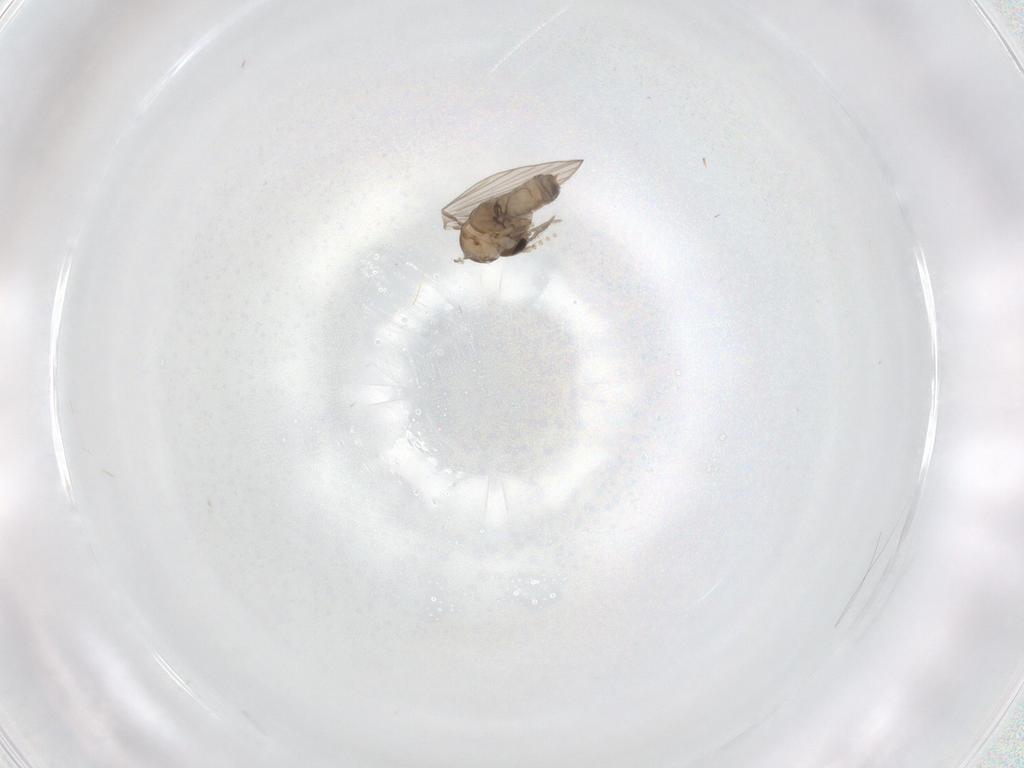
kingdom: Animalia
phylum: Arthropoda
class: Insecta
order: Diptera
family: Psychodidae
